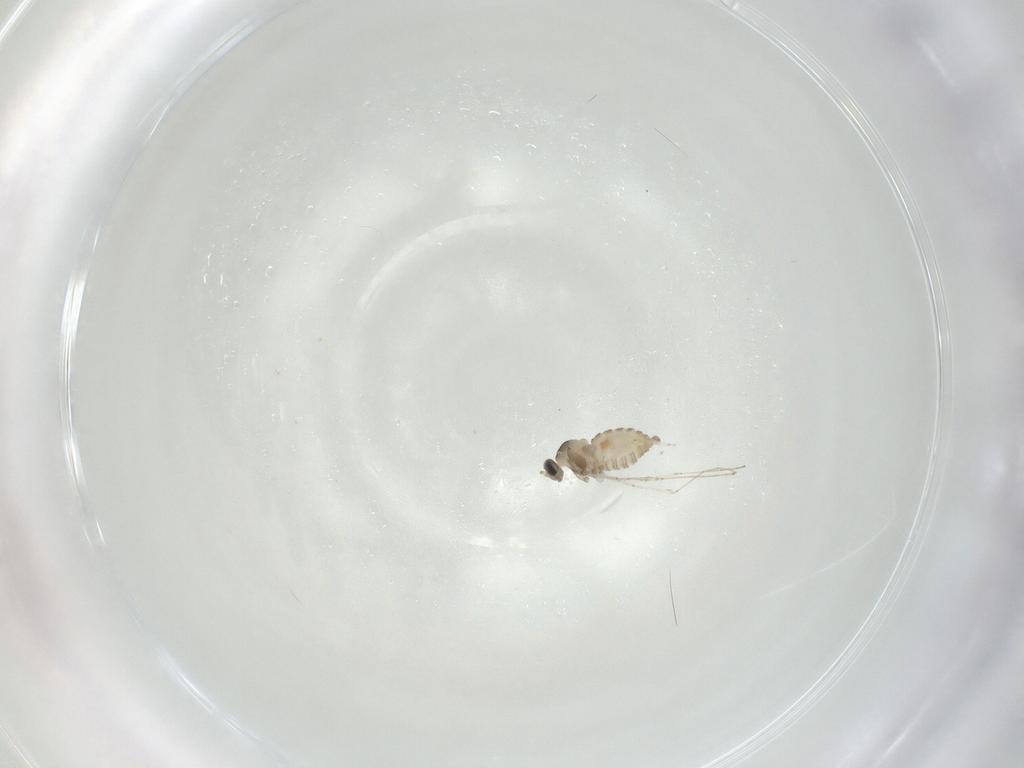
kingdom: Animalia
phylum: Arthropoda
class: Insecta
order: Diptera
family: Cecidomyiidae
